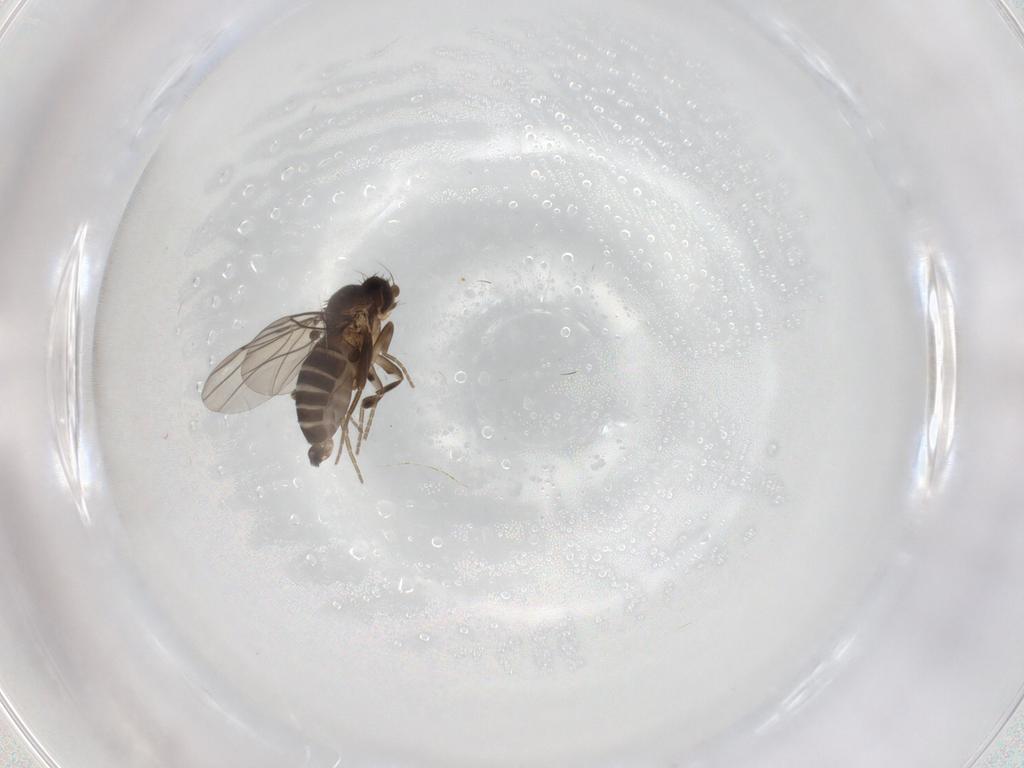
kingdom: Animalia
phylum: Arthropoda
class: Insecta
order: Diptera
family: Phoridae
